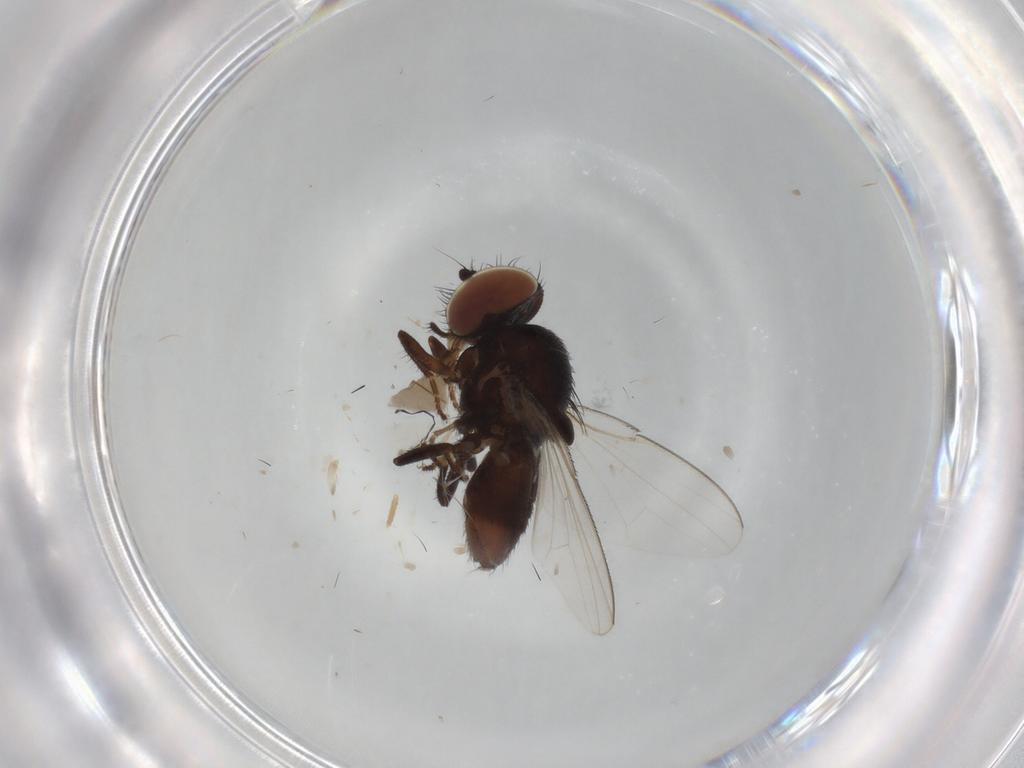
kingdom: Animalia
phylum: Arthropoda
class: Insecta
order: Diptera
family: Milichiidae
